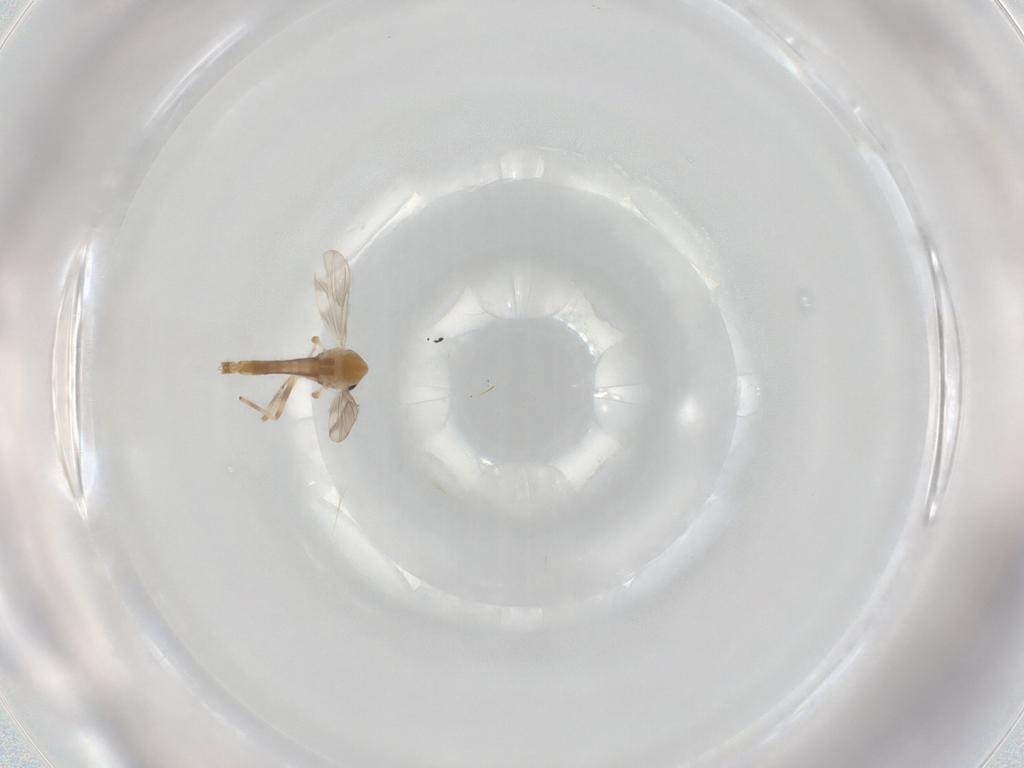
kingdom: Animalia
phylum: Arthropoda
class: Insecta
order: Diptera
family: Chironomidae
